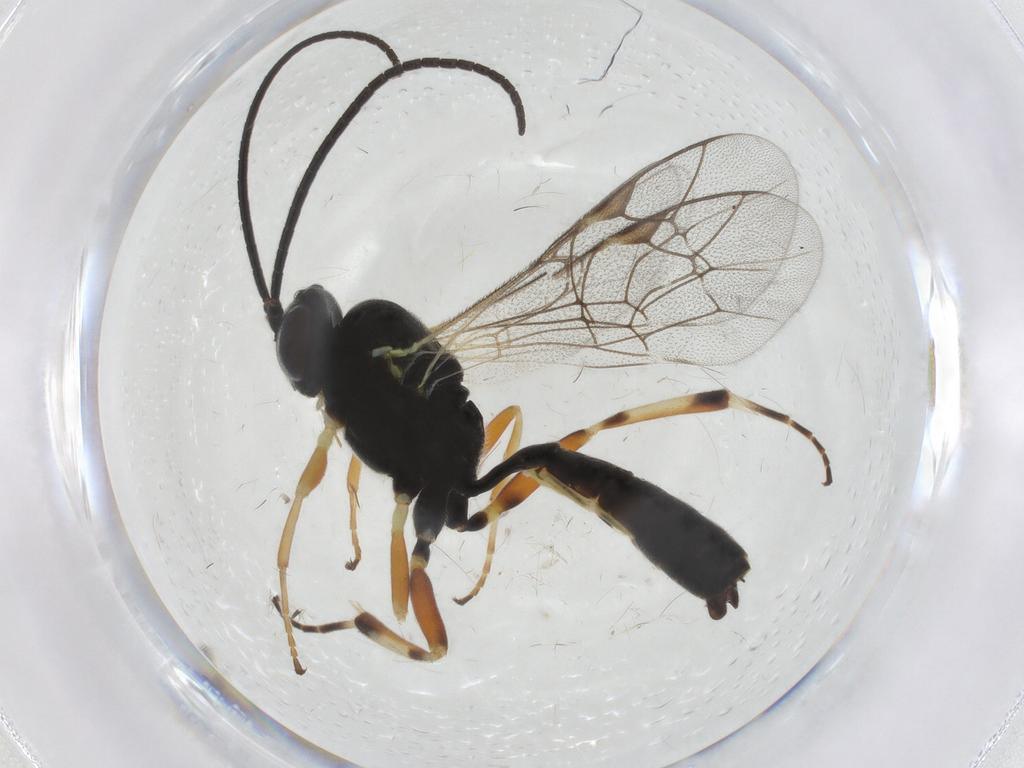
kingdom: Animalia
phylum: Arthropoda
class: Insecta
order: Hymenoptera
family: Ichneumonidae
